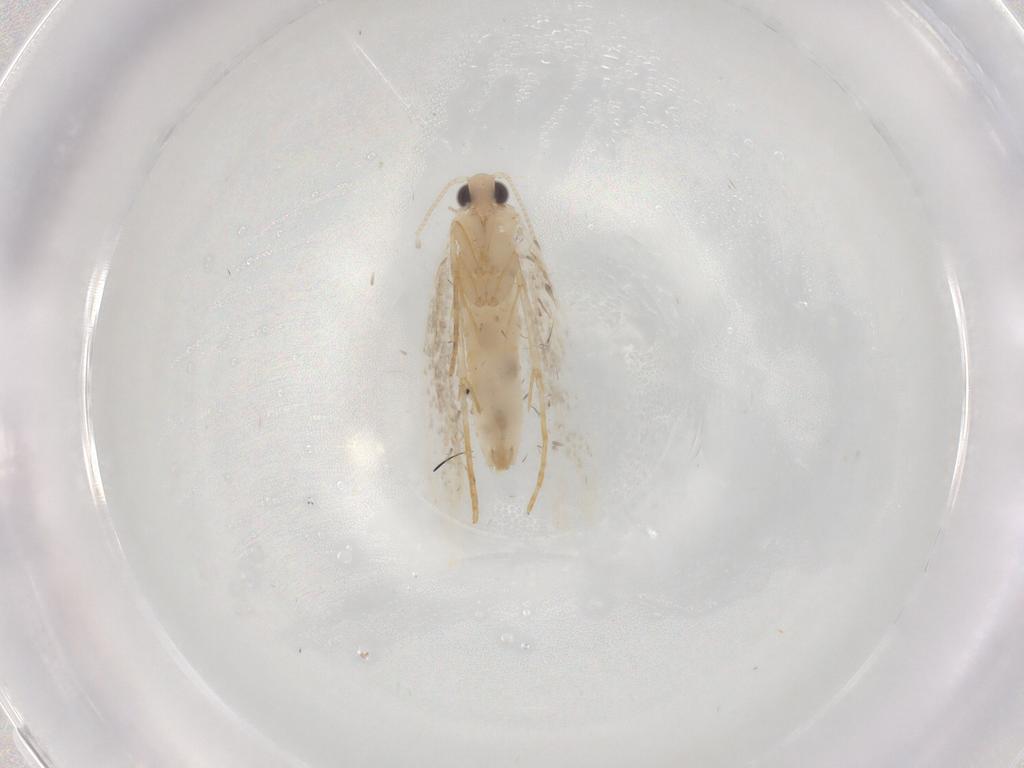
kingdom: Animalia
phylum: Arthropoda
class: Insecta
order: Lepidoptera
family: Tineidae
